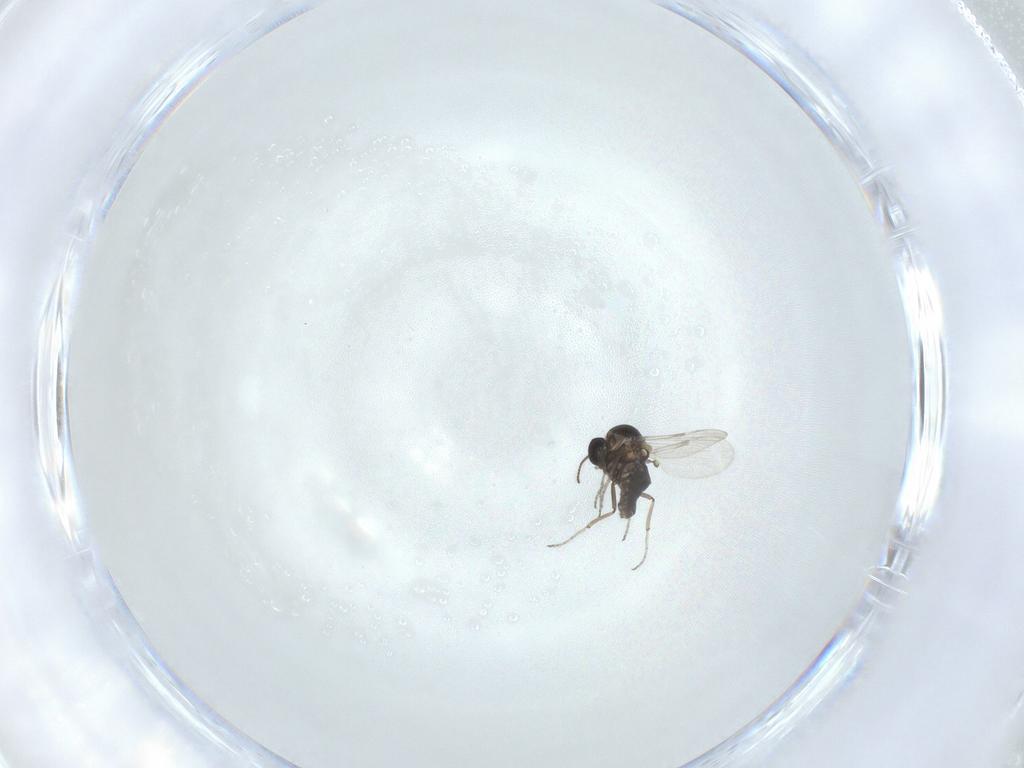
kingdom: Animalia
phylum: Arthropoda
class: Insecta
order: Diptera
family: Ceratopogonidae
